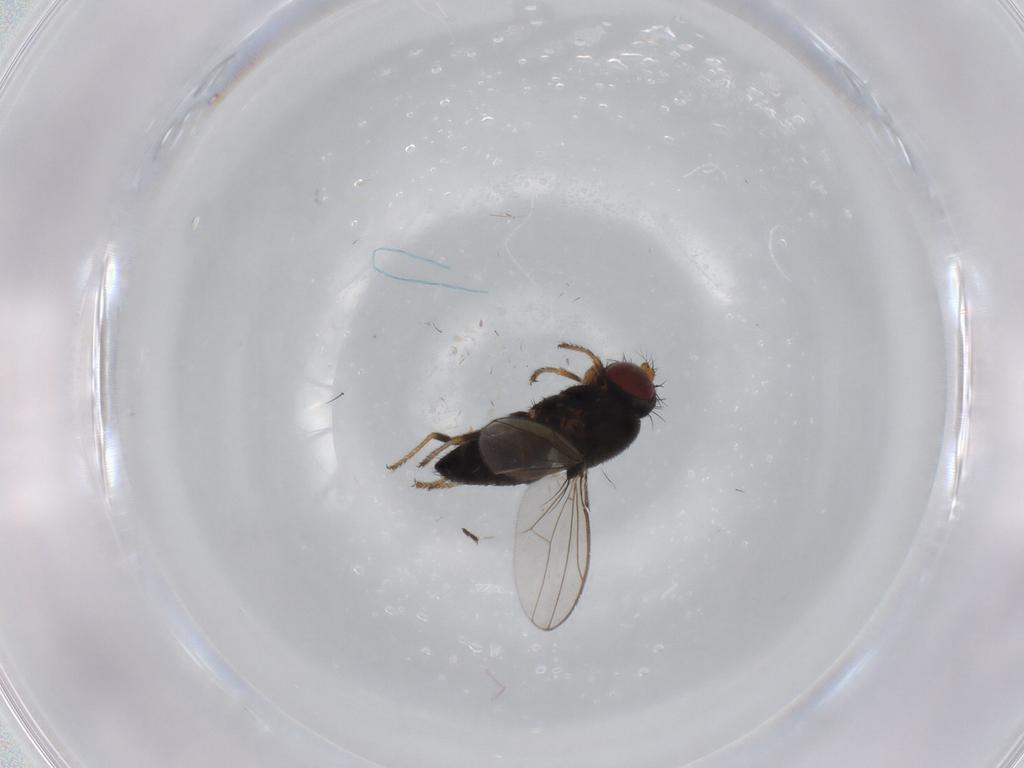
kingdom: Animalia
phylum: Arthropoda
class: Insecta
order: Diptera
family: Ephydridae
